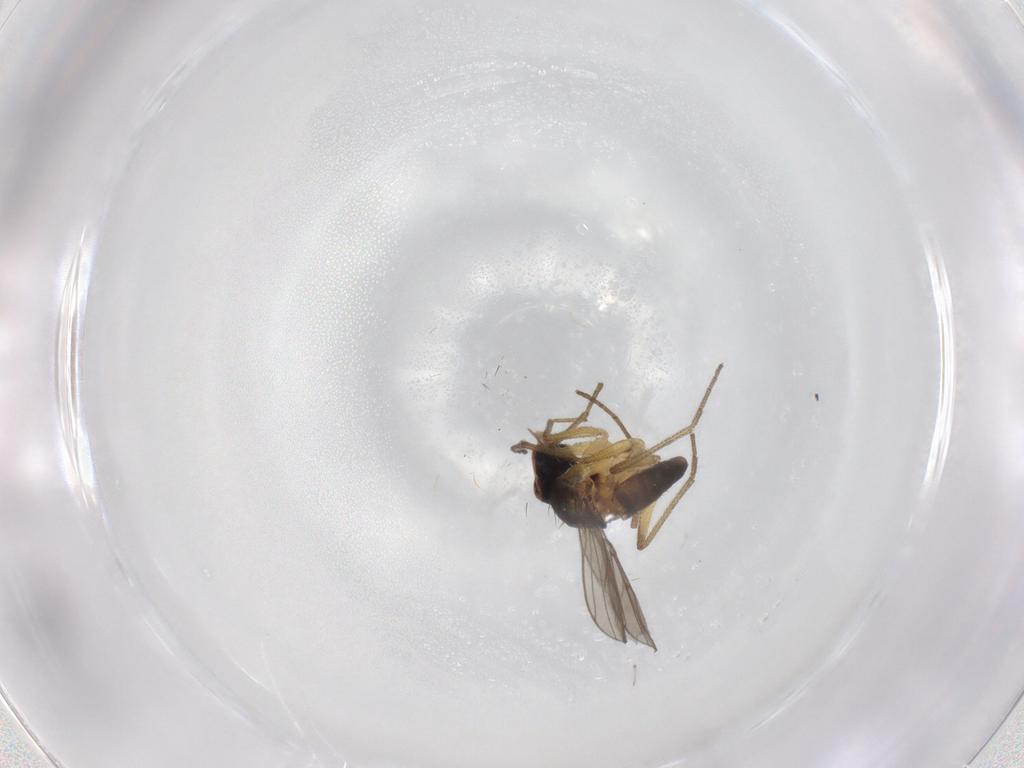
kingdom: Animalia
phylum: Arthropoda
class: Insecta
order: Diptera
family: Dolichopodidae
